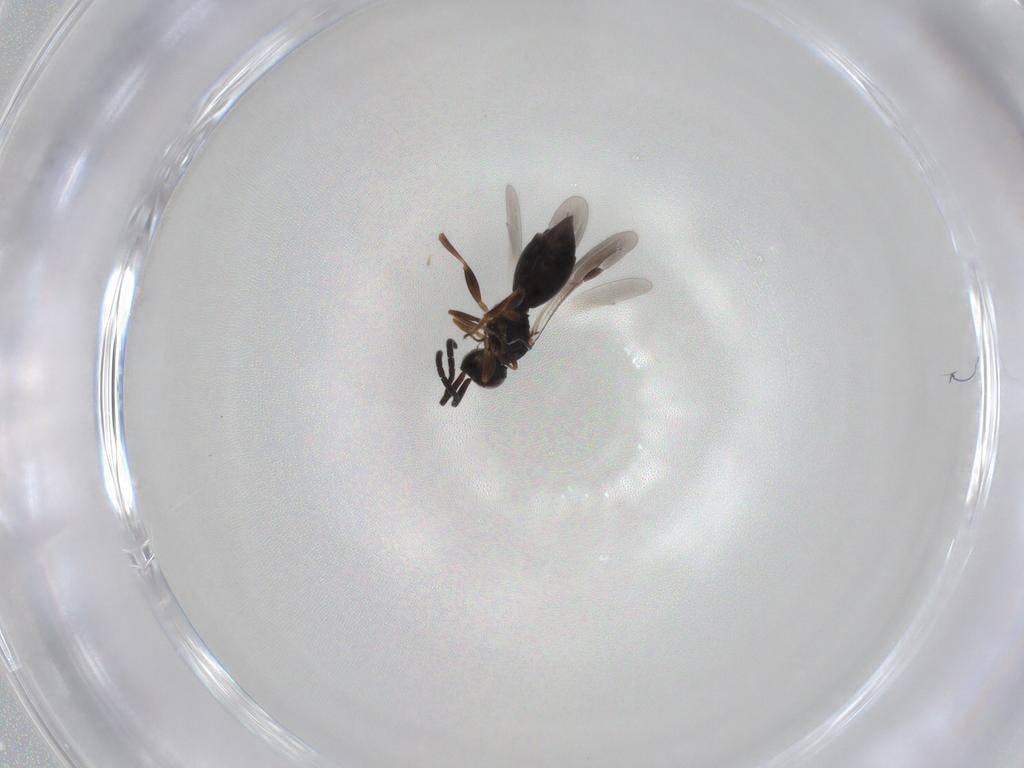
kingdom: Animalia
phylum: Arthropoda
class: Insecta
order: Hymenoptera
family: Megaspilidae
